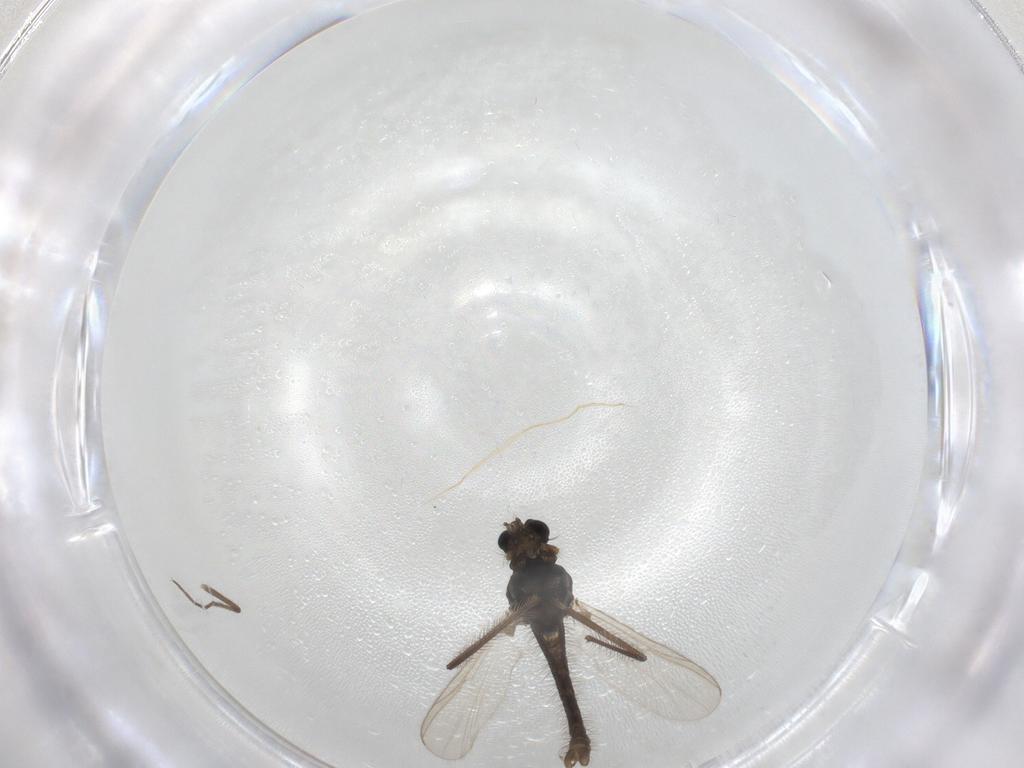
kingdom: Animalia
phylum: Arthropoda
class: Insecta
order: Diptera
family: Chironomidae
